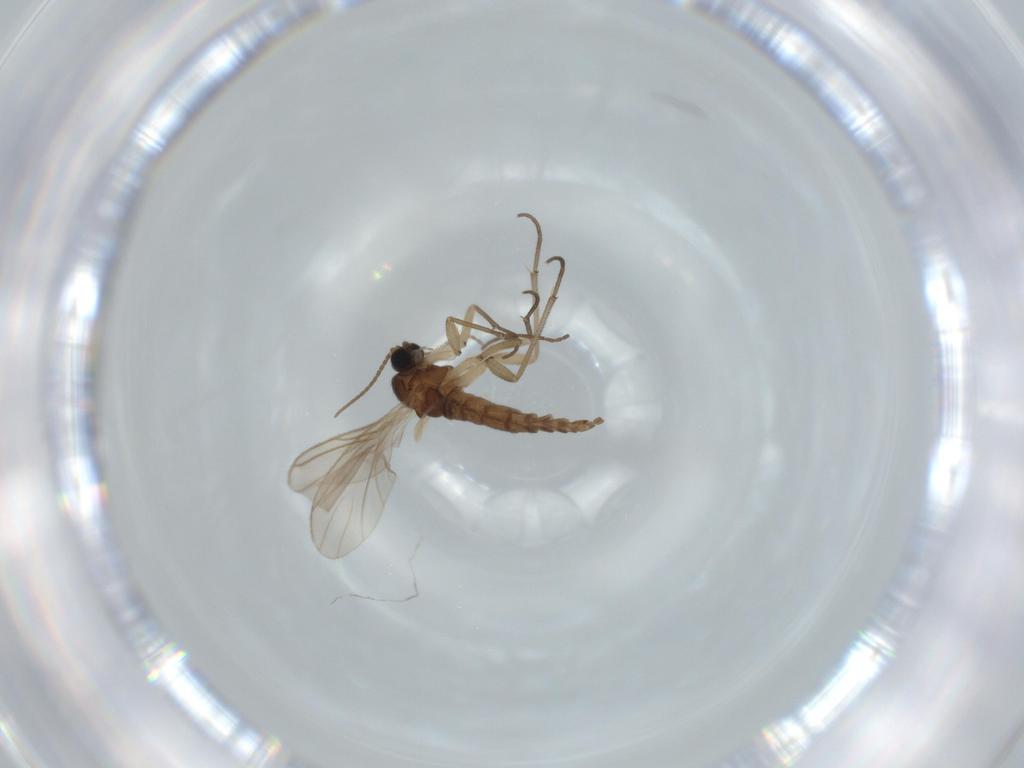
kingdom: Animalia
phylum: Arthropoda
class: Insecta
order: Diptera
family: Sciaridae
